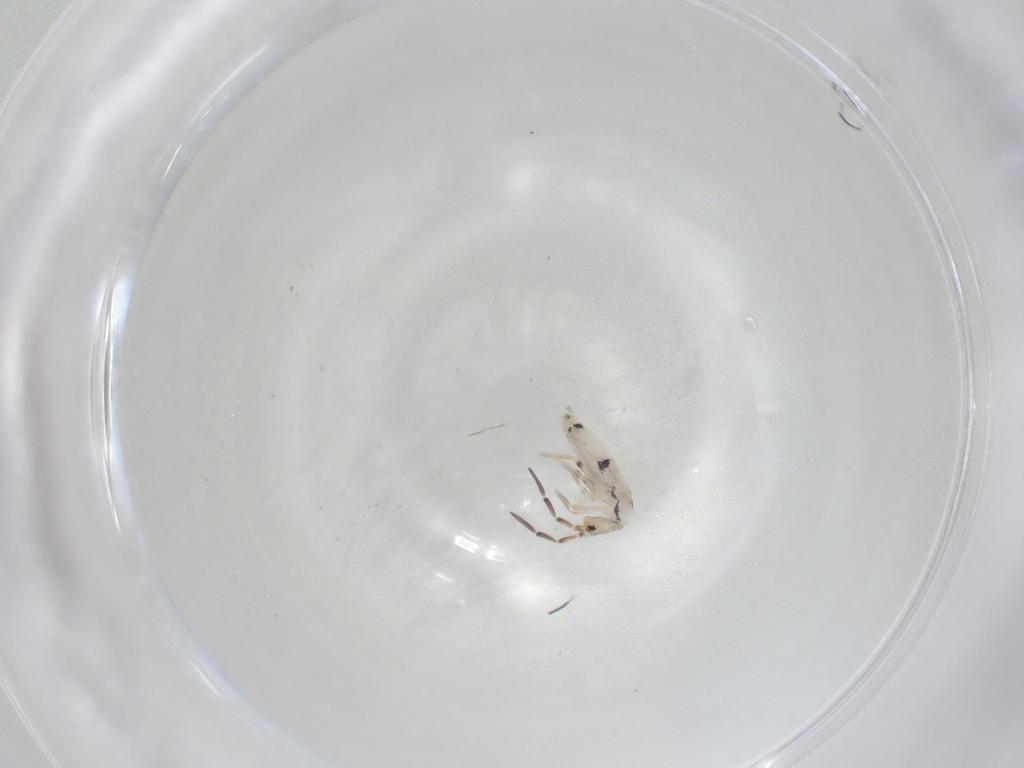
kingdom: Animalia
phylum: Arthropoda
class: Collembola
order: Entomobryomorpha
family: Entomobryidae
